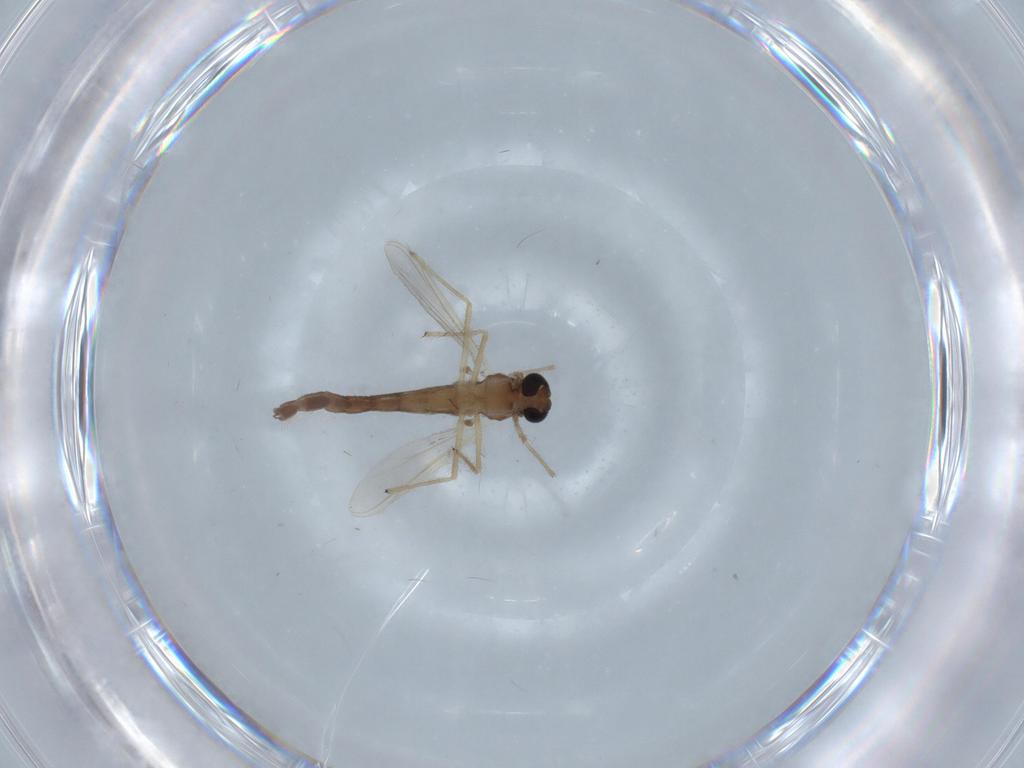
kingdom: Animalia
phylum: Arthropoda
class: Insecta
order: Diptera
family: Chironomidae
